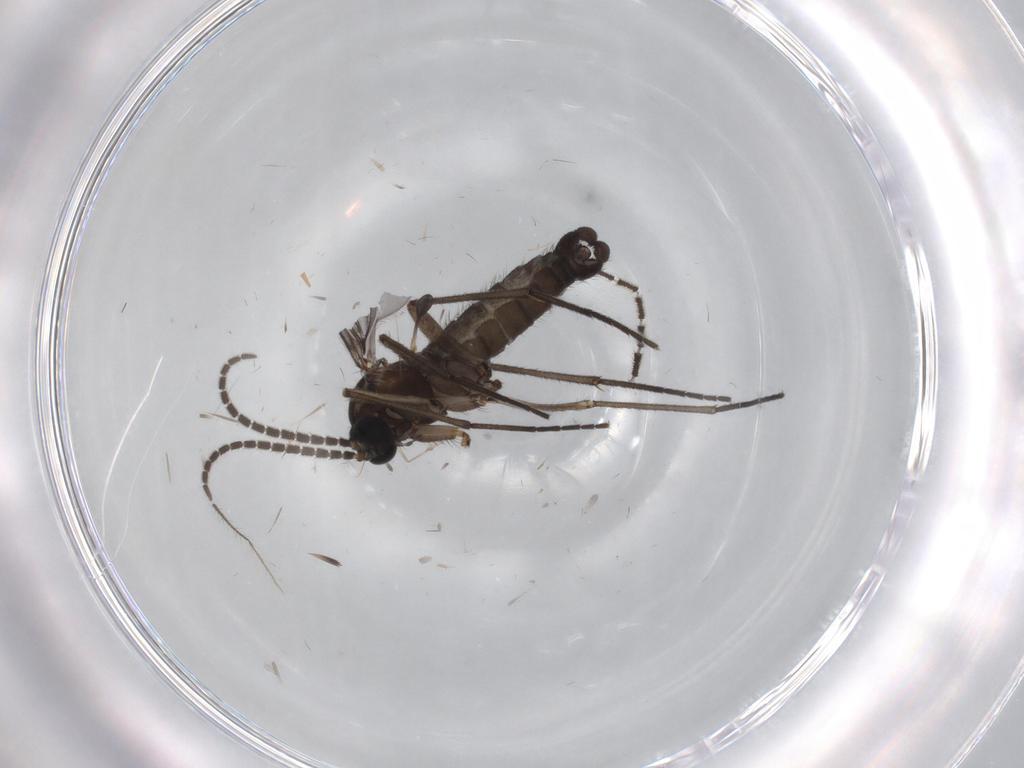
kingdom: Animalia
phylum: Arthropoda
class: Insecta
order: Diptera
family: Sciaridae
